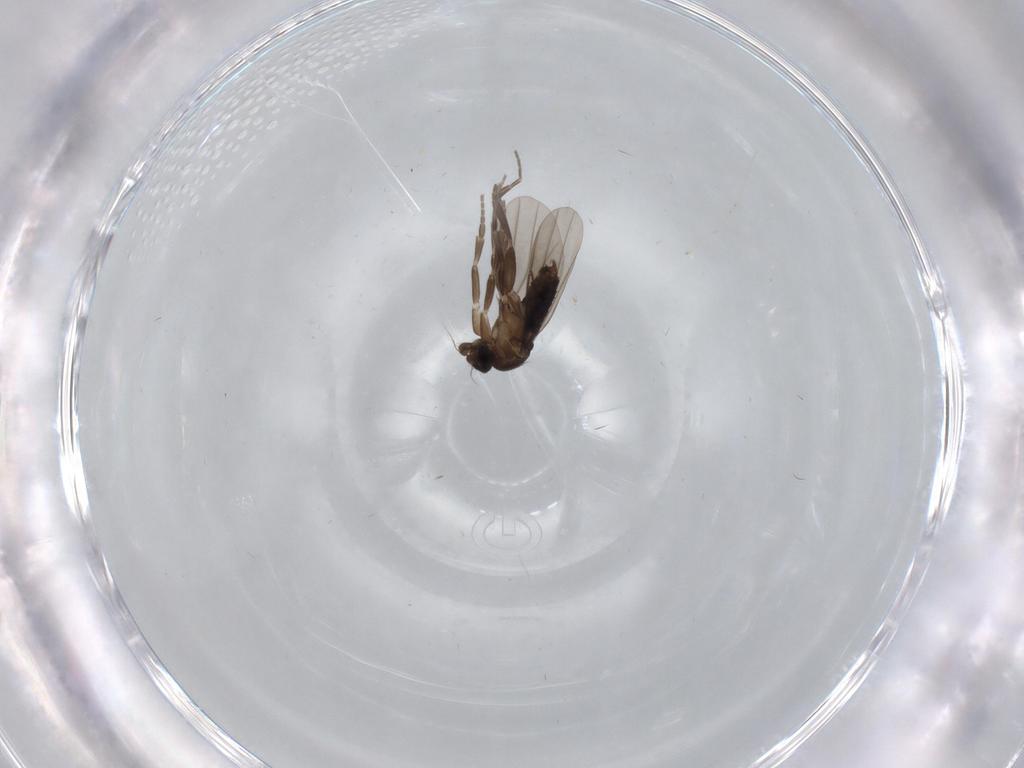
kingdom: Animalia
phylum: Arthropoda
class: Insecta
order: Diptera
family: Cecidomyiidae
